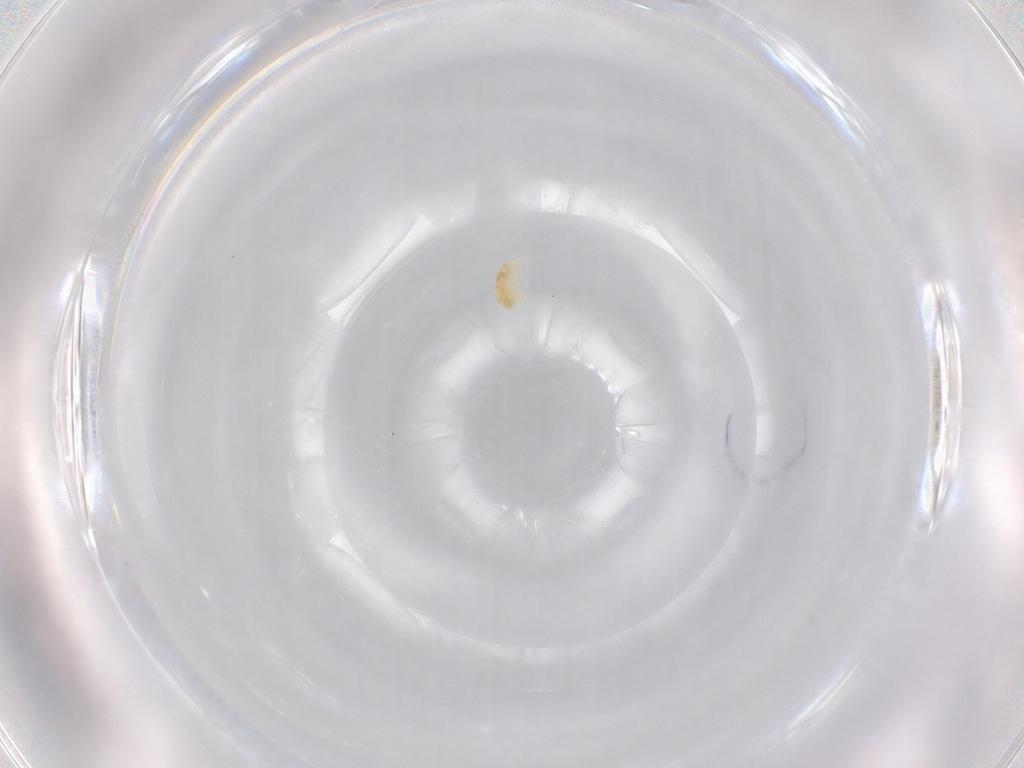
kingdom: Animalia
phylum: Arthropoda
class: Arachnida
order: Trombidiformes
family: Eupodidae
